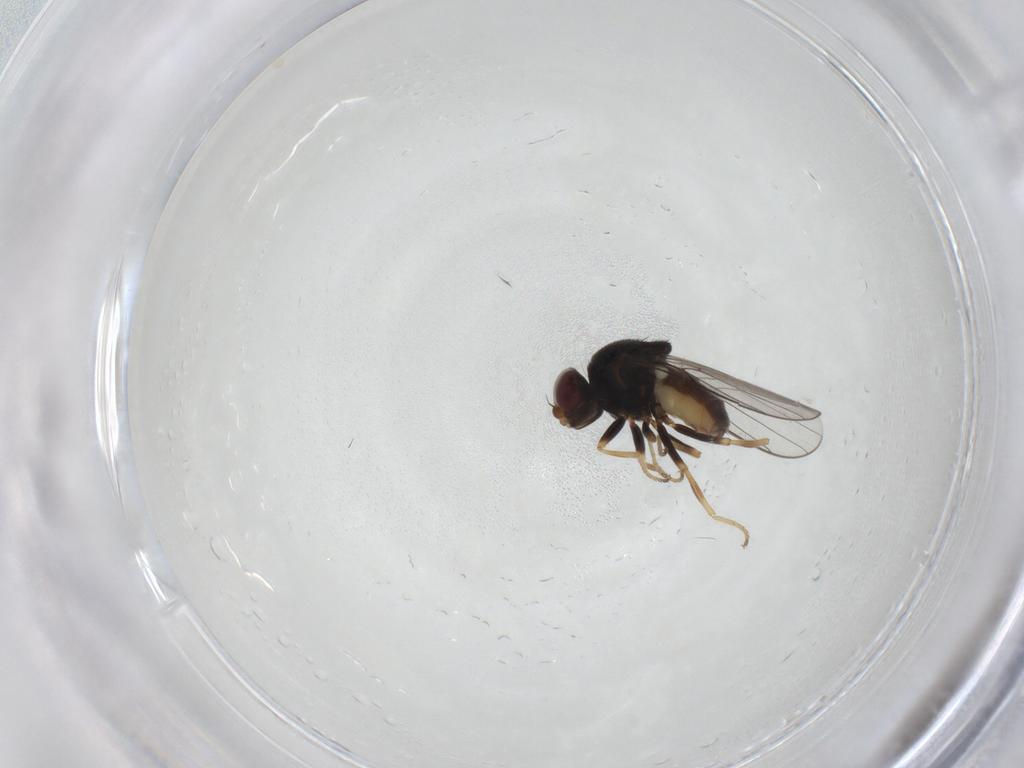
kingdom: Animalia
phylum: Arthropoda
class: Insecta
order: Diptera
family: Chloropidae
